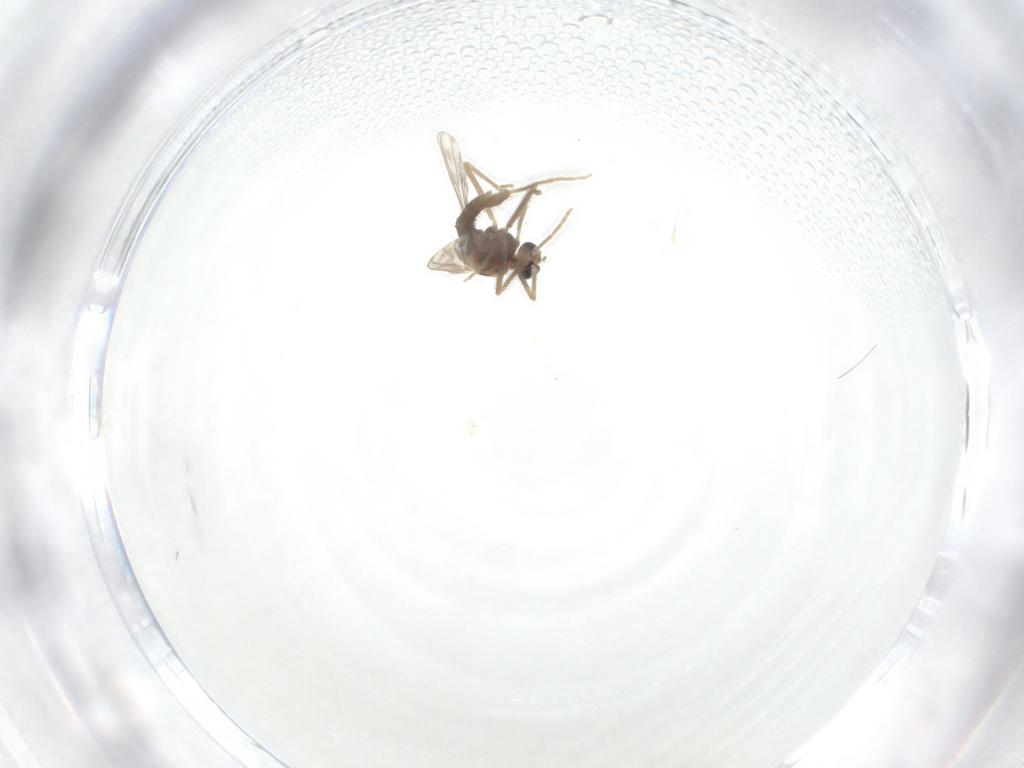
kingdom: Animalia
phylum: Arthropoda
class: Insecta
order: Diptera
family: Chironomidae
